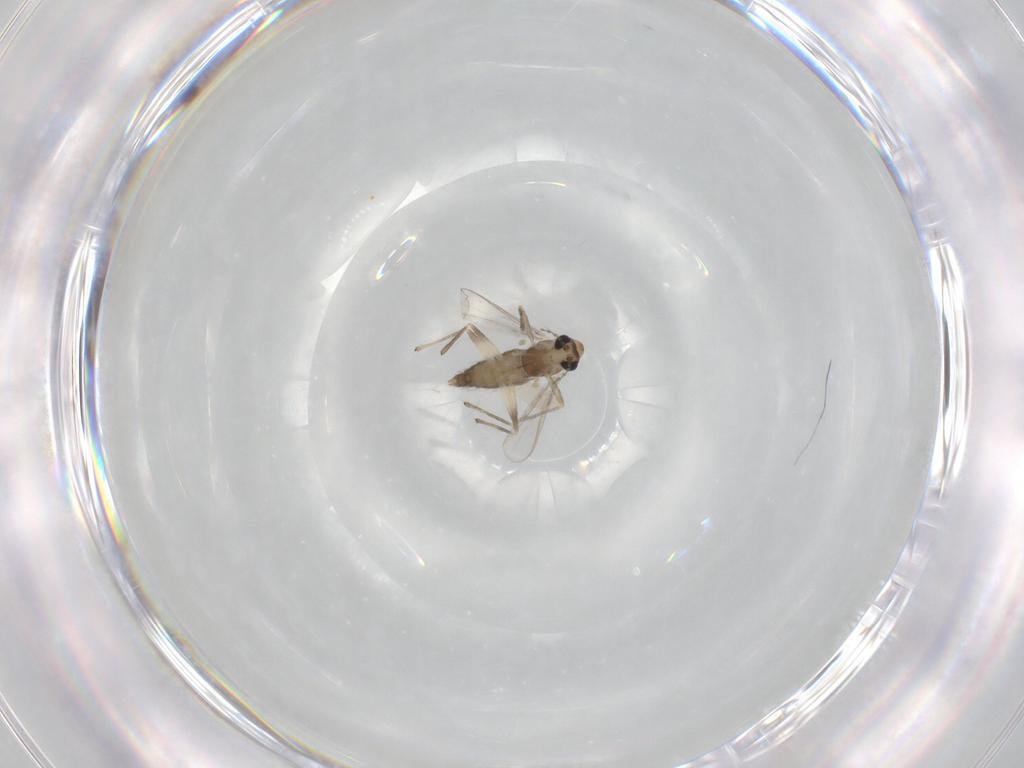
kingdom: Animalia
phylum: Arthropoda
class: Insecta
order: Diptera
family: Chironomidae
